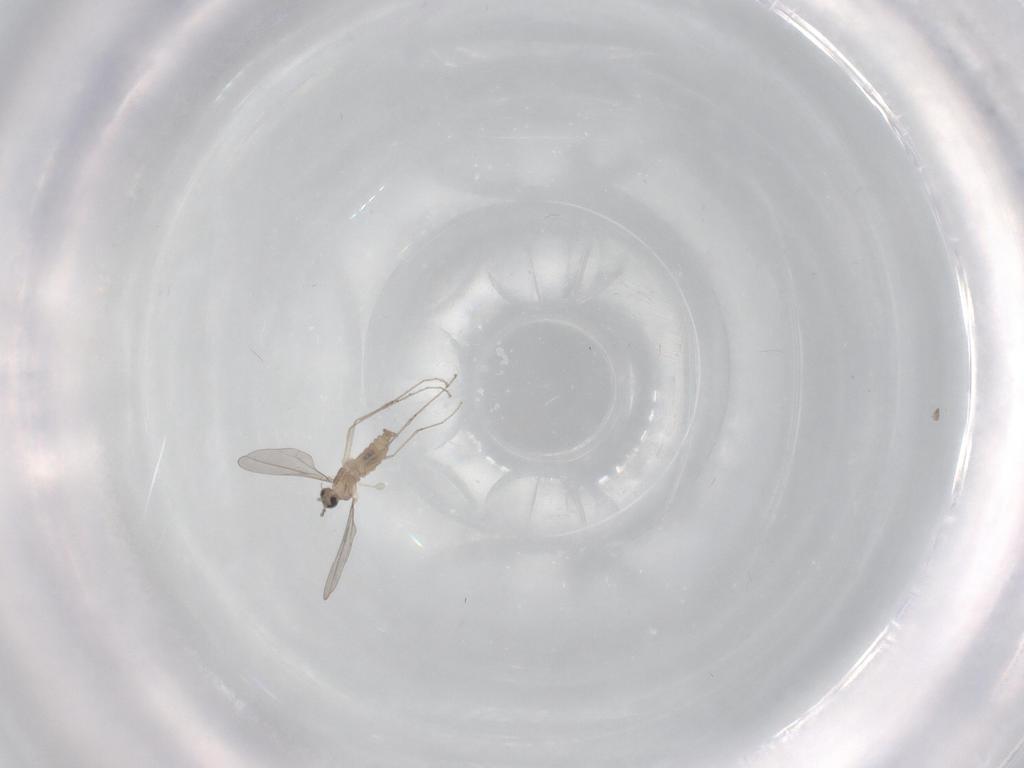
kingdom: Animalia
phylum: Arthropoda
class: Insecta
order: Diptera
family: Cecidomyiidae
